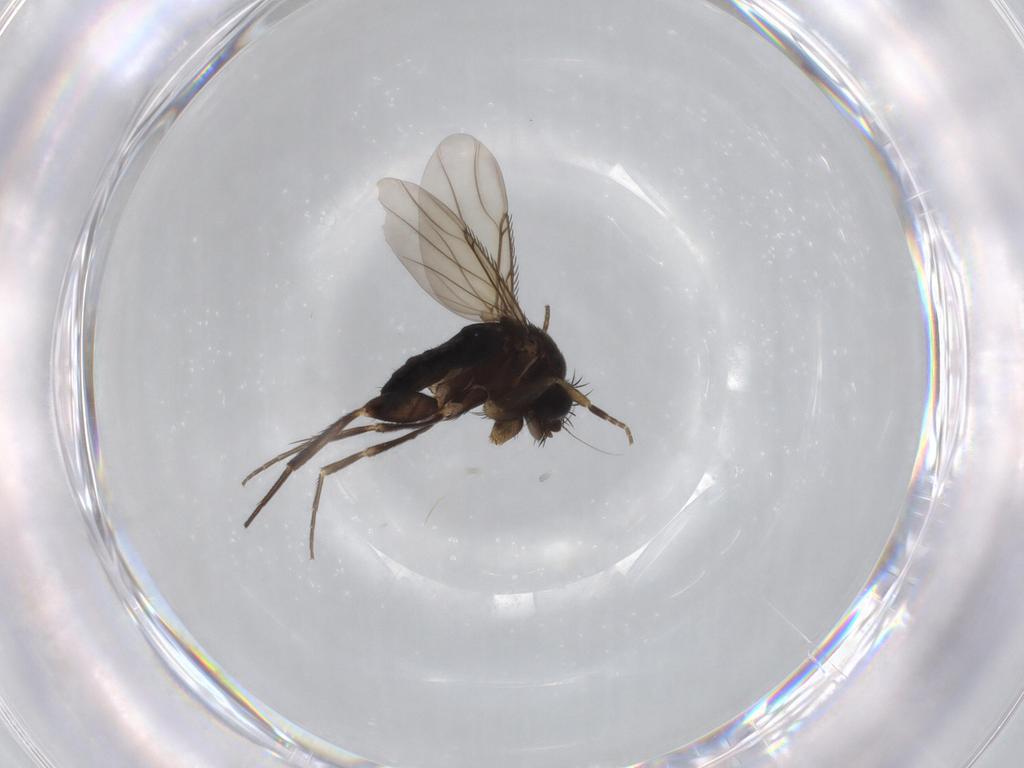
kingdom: Animalia
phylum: Arthropoda
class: Insecta
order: Diptera
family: Phoridae
